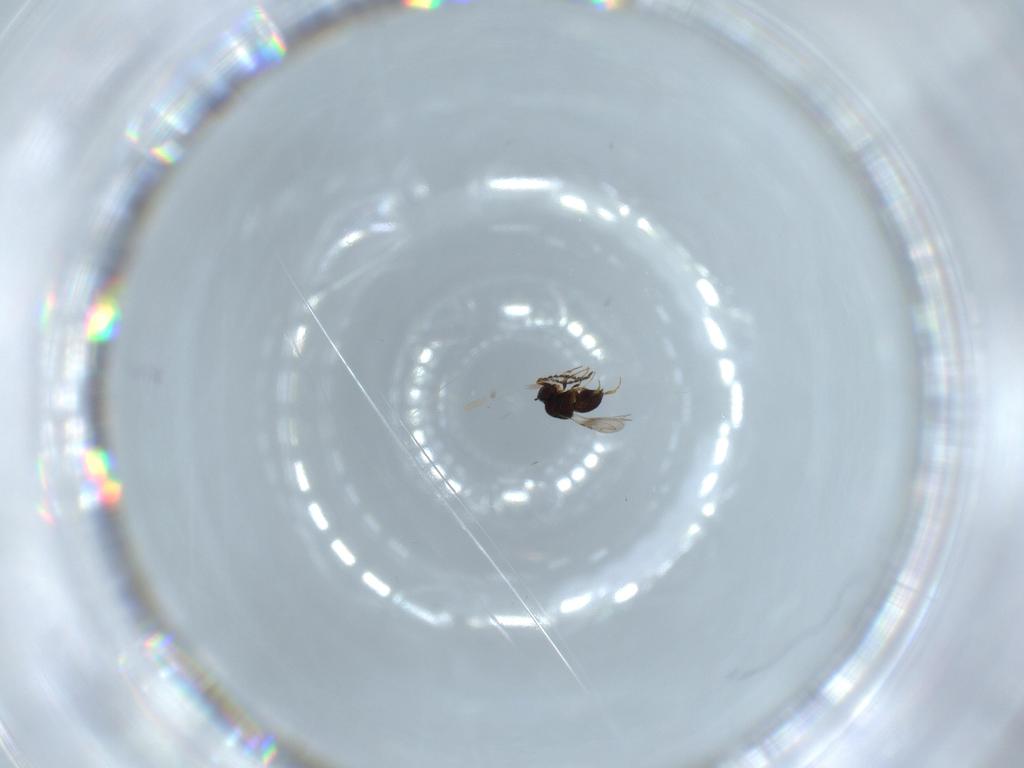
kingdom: Animalia
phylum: Arthropoda
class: Insecta
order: Hymenoptera
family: Formicidae
